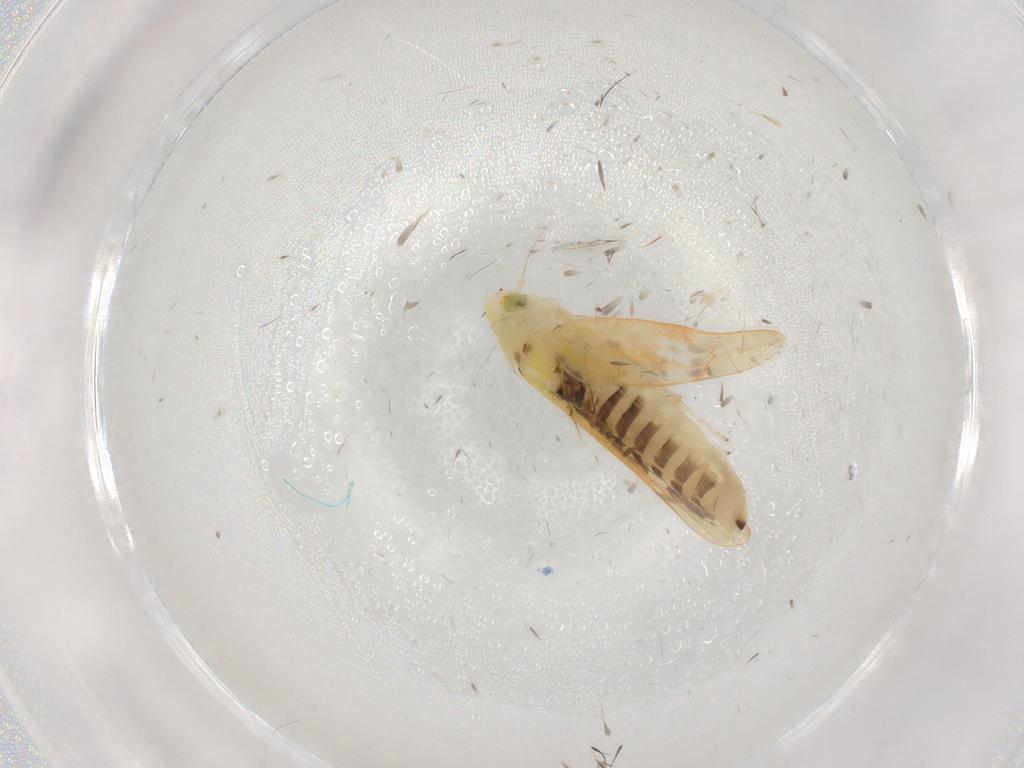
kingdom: Animalia
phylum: Arthropoda
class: Insecta
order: Hemiptera
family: Cicadellidae
